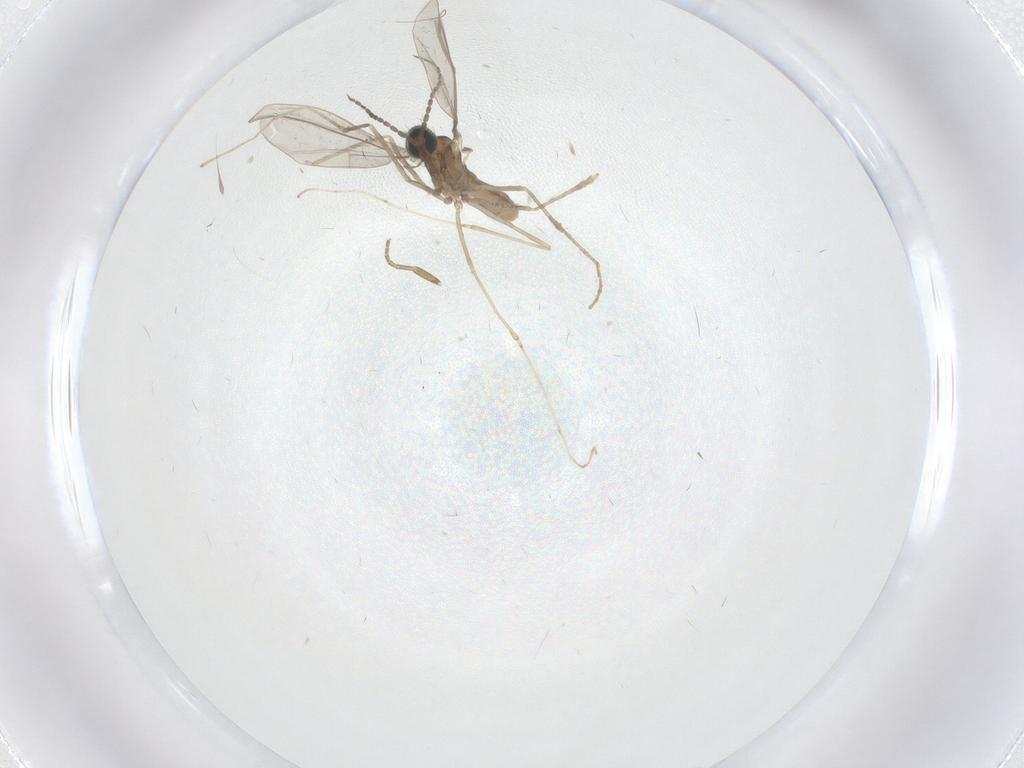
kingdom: Animalia
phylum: Arthropoda
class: Insecta
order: Diptera
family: Cecidomyiidae
